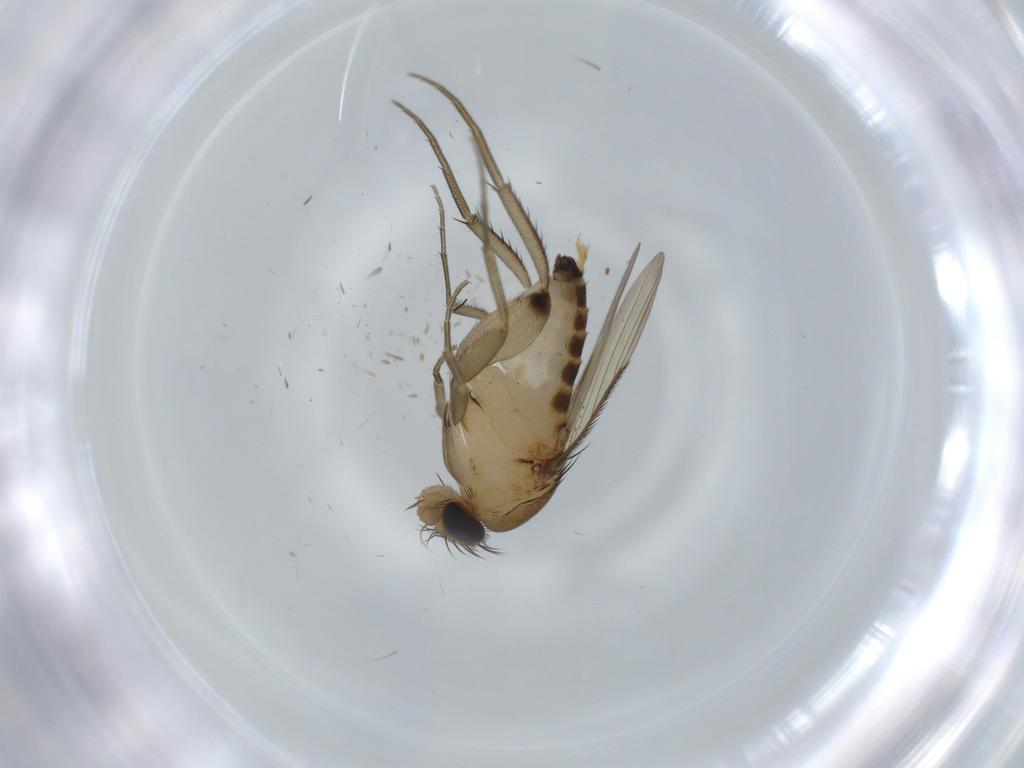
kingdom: Animalia
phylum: Arthropoda
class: Insecta
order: Diptera
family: Phoridae
